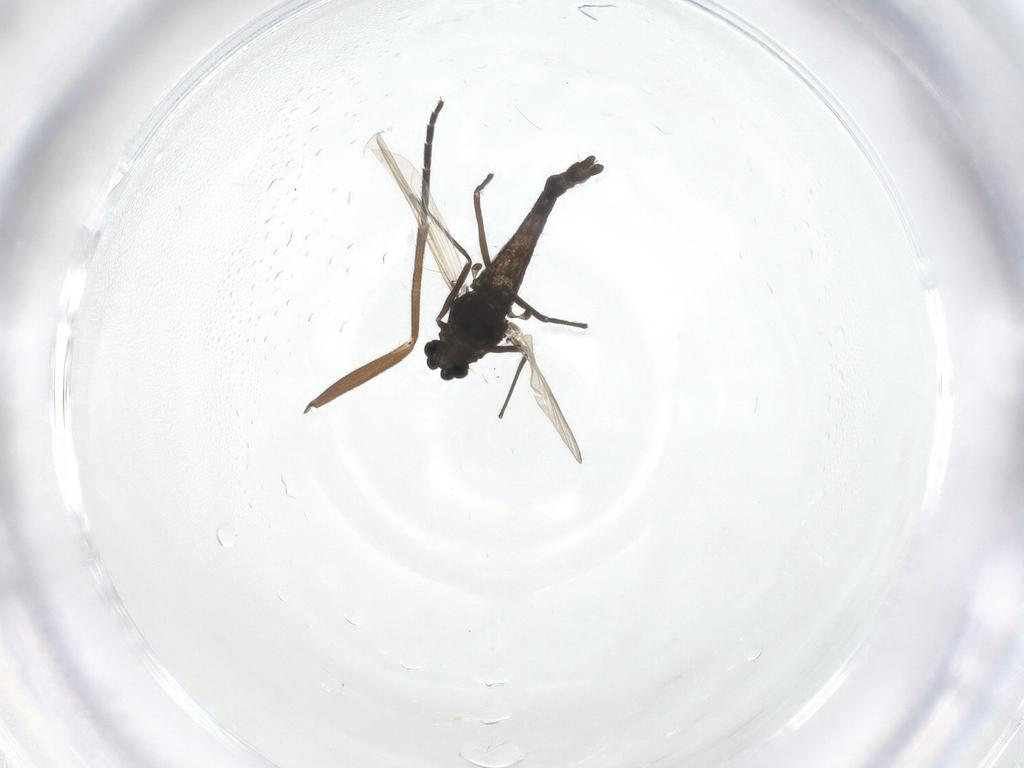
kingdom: Animalia
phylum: Arthropoda
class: Insecta
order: Diptera
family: Sciaridae
